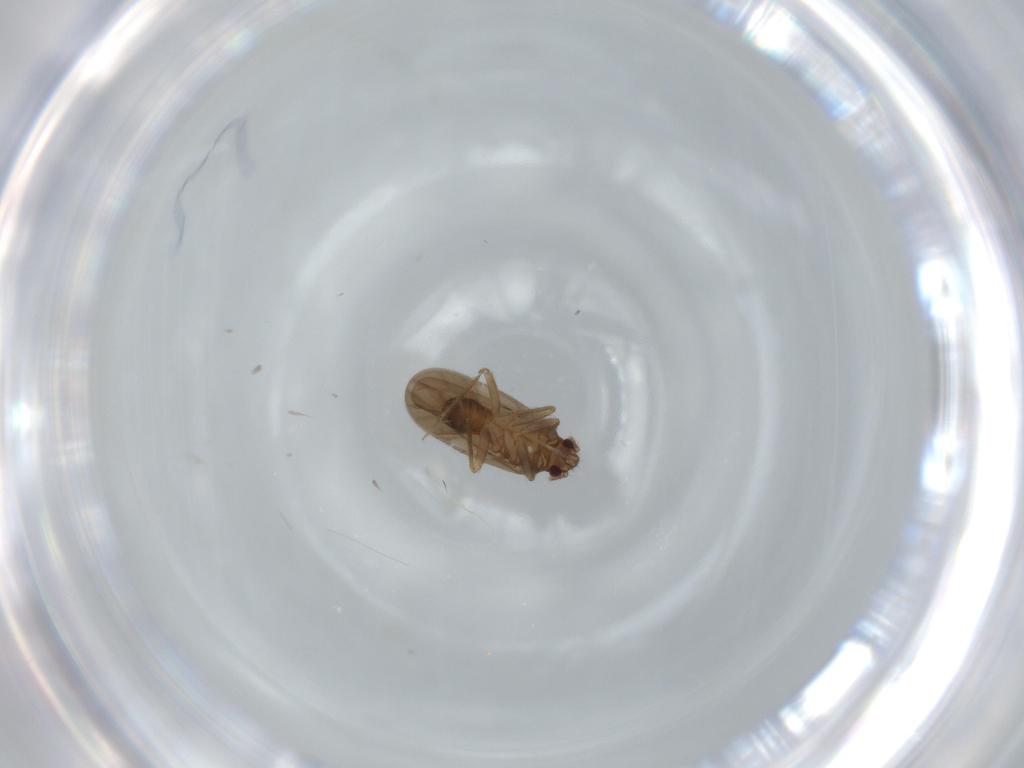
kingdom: Animalia
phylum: Arthropoda
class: Insecta
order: Hemiptera
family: Ceratocombidae
